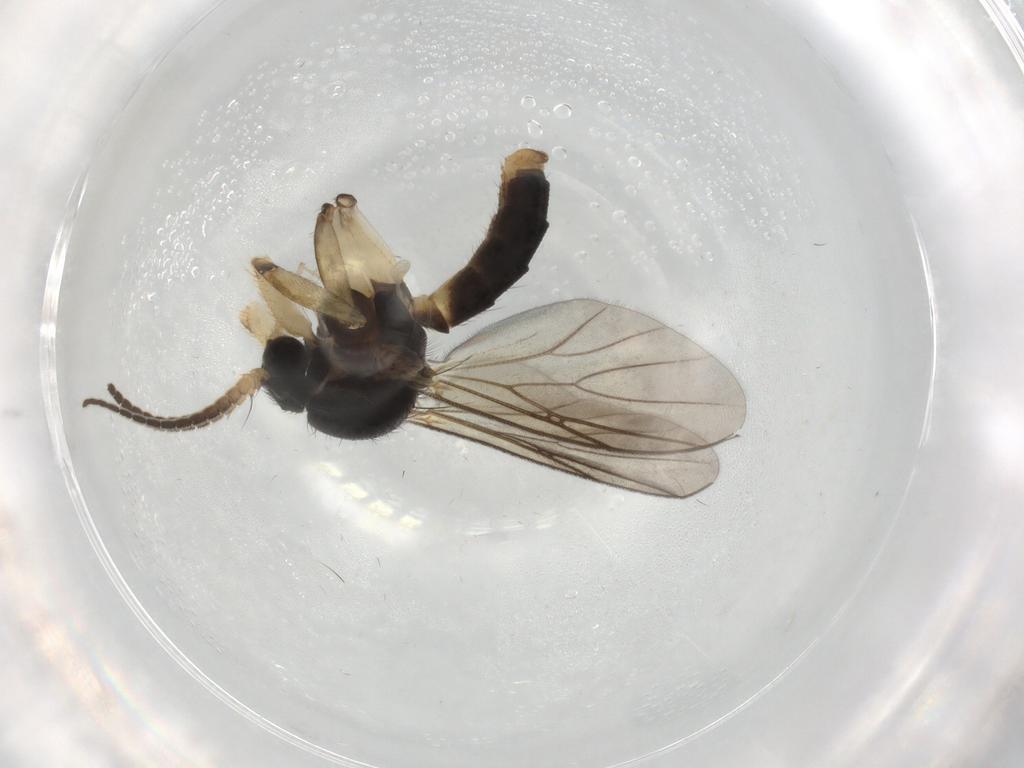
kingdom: Animalia
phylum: Arthropoda
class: Insecta
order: Diptera
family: Mycetophilidae
